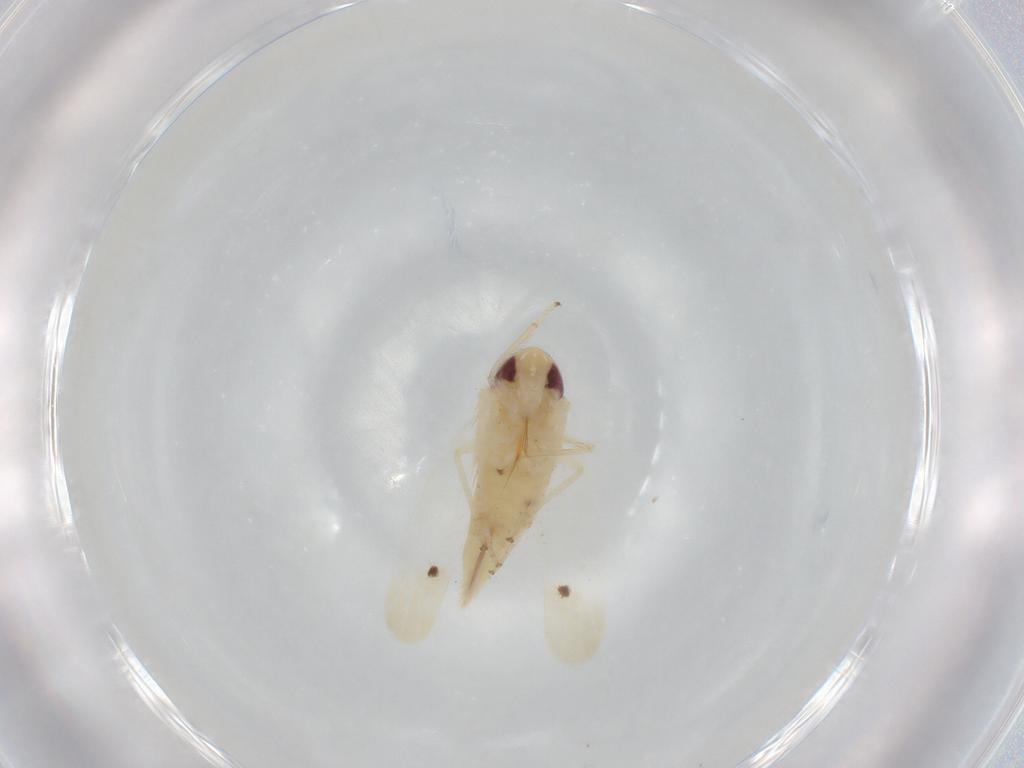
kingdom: Animalia
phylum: Arthropoda
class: Insecta
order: Hemiptera
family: Cicadellidae
